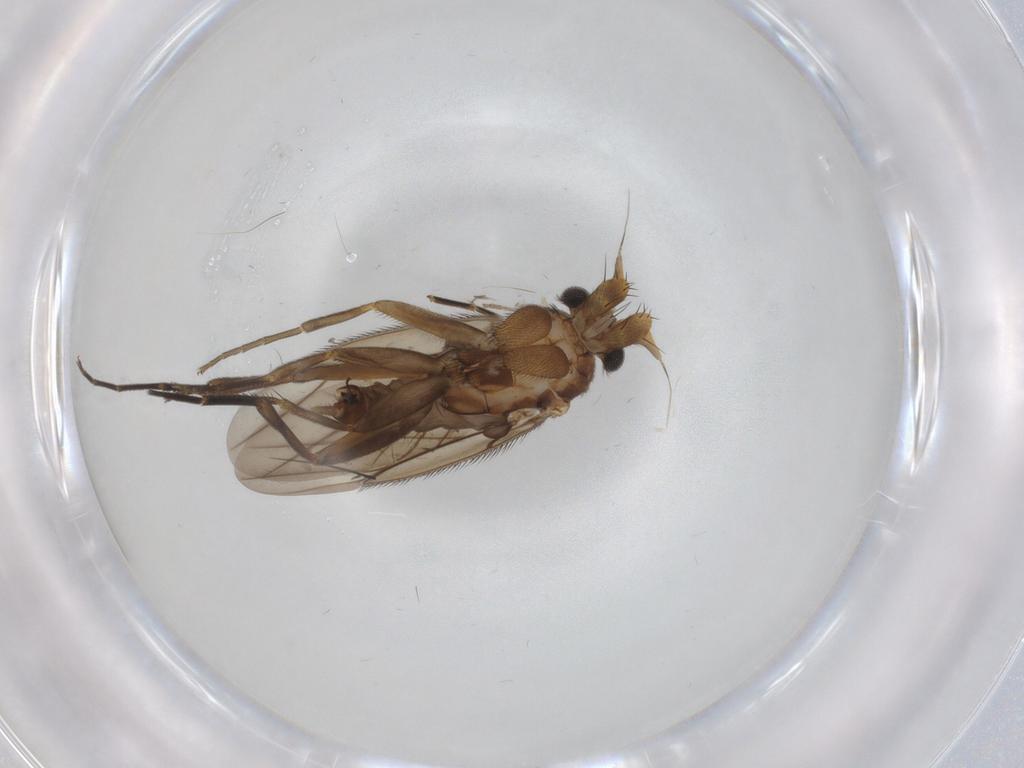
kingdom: Animalia
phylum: Arthropoda
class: Insecta
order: Diptera
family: Phoridae
